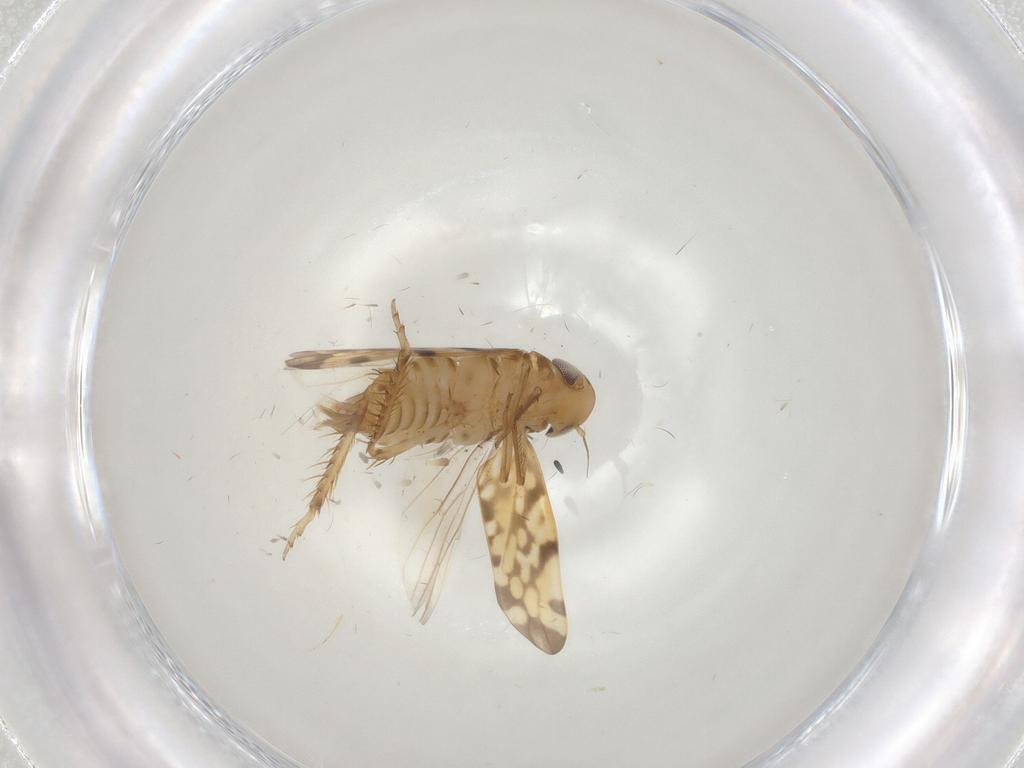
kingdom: Animalia
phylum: Arthropoda
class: Insecta
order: Hemiptera
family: Cicadellidae
